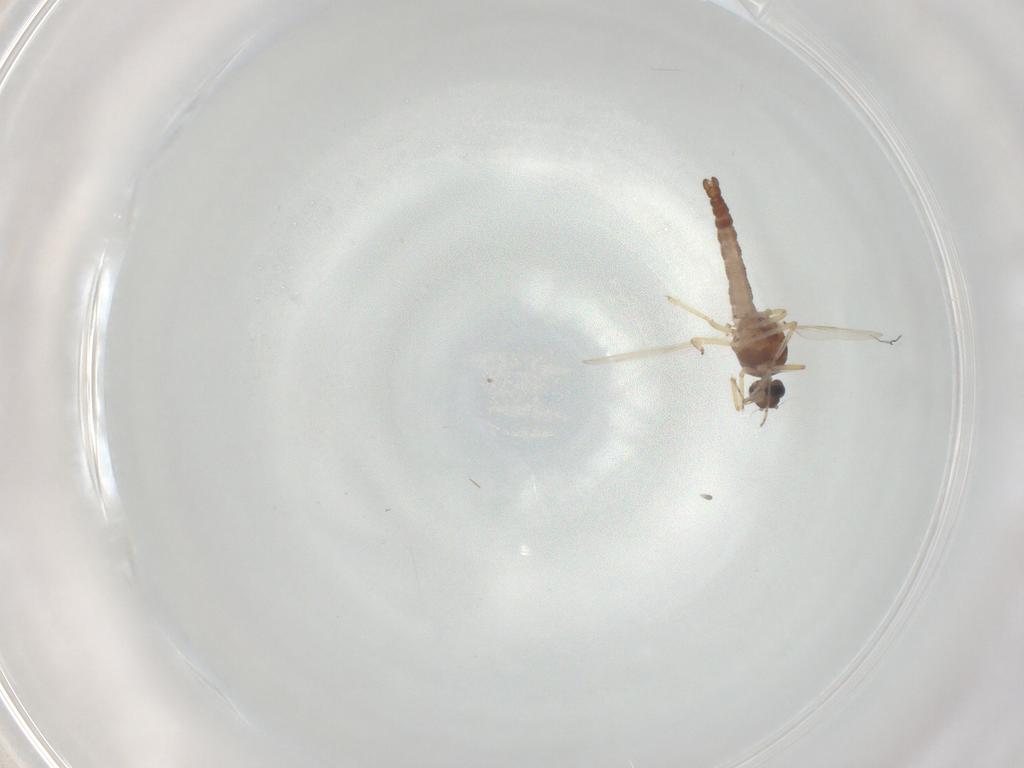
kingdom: Animalia
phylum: Arthropoda
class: Insecta
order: Diptera
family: Ceratopogonidae
